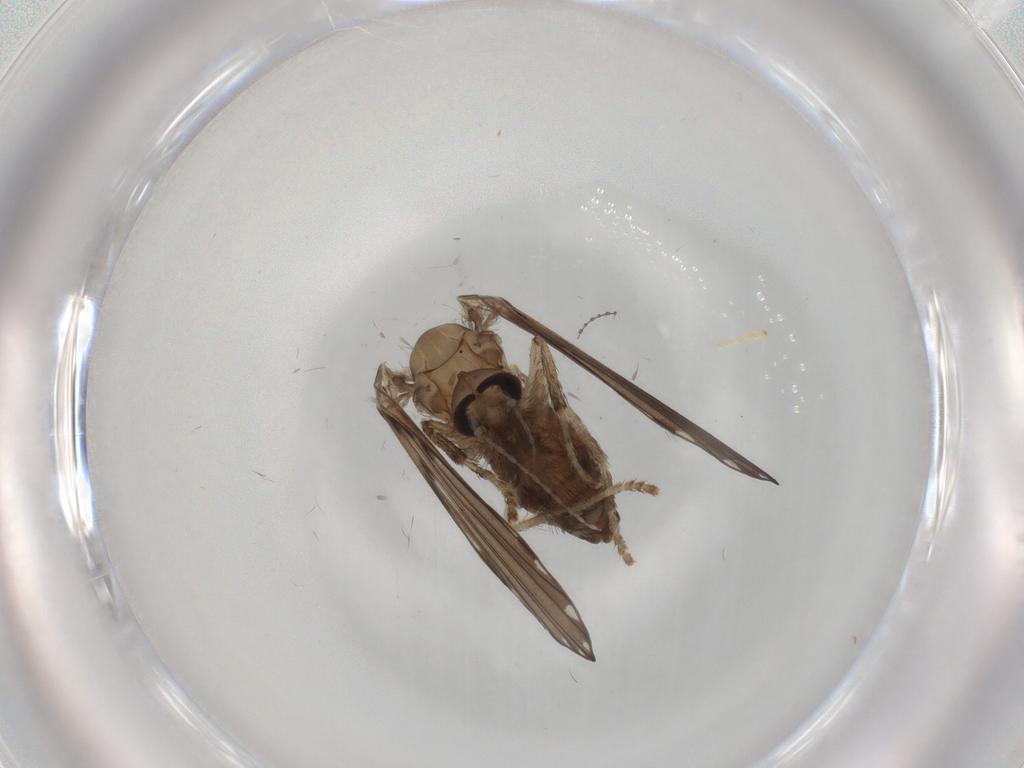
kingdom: Animalia
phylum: Arthropoda
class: Insecta
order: Diptera
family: Psychodidae
